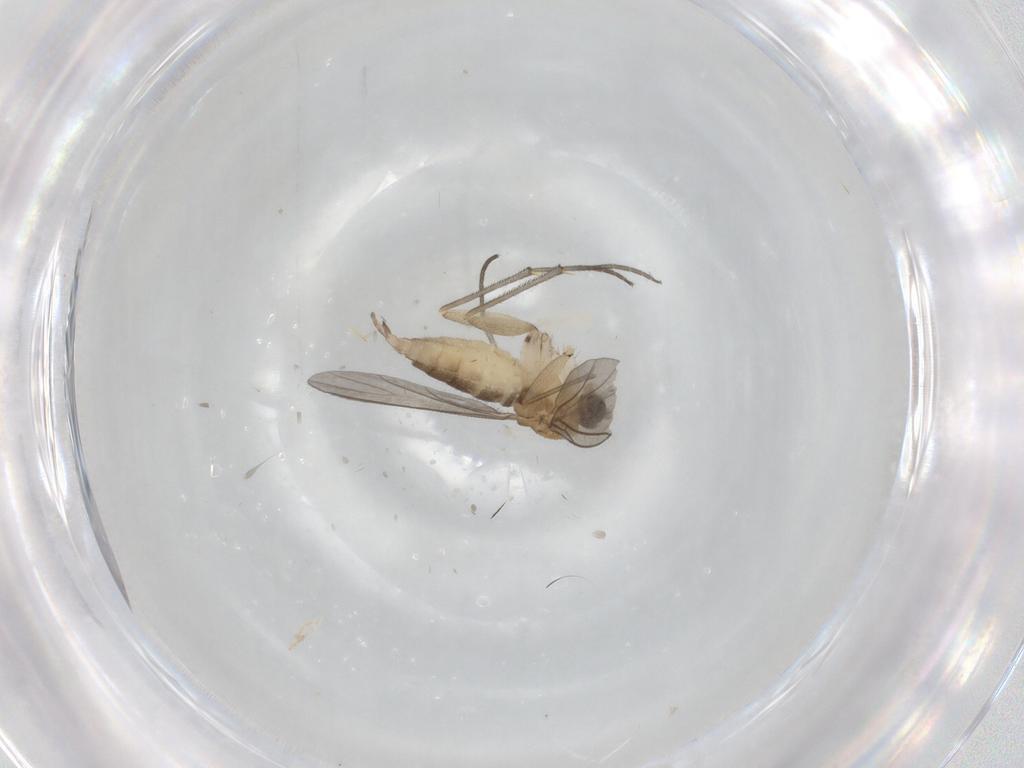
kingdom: Animalia
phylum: Arthropoda
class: Insecta
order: Diptera
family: Sciaridae
